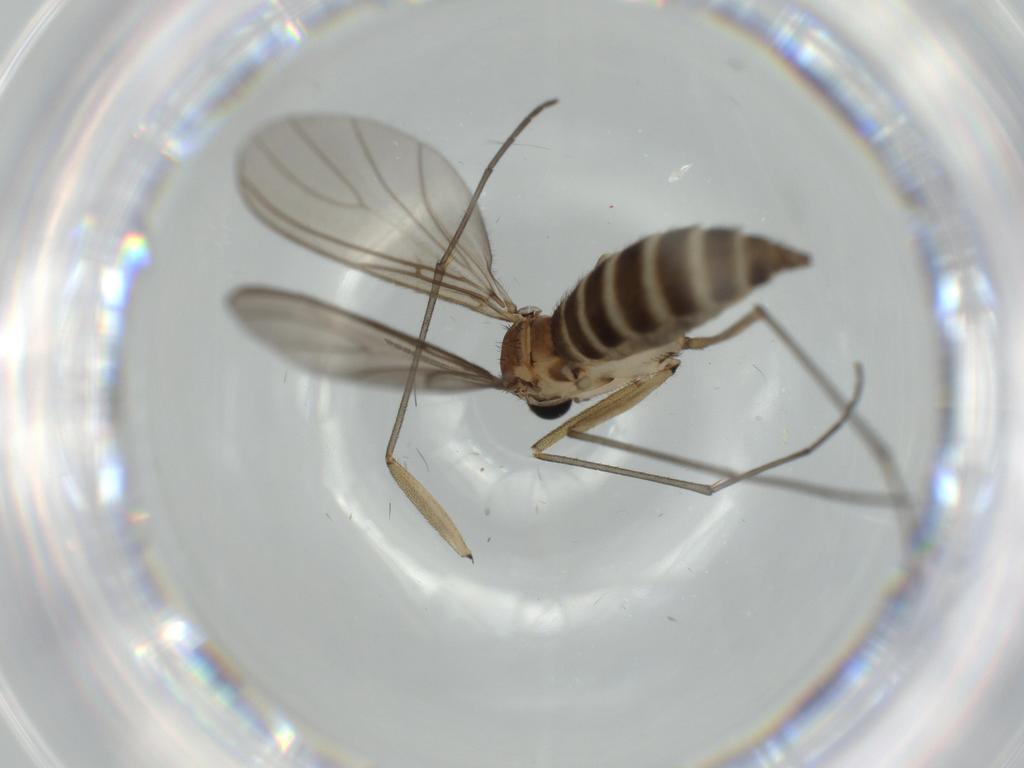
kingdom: Animalia
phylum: Arthropoda
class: Insecta
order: Diptera
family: Sciaridae
